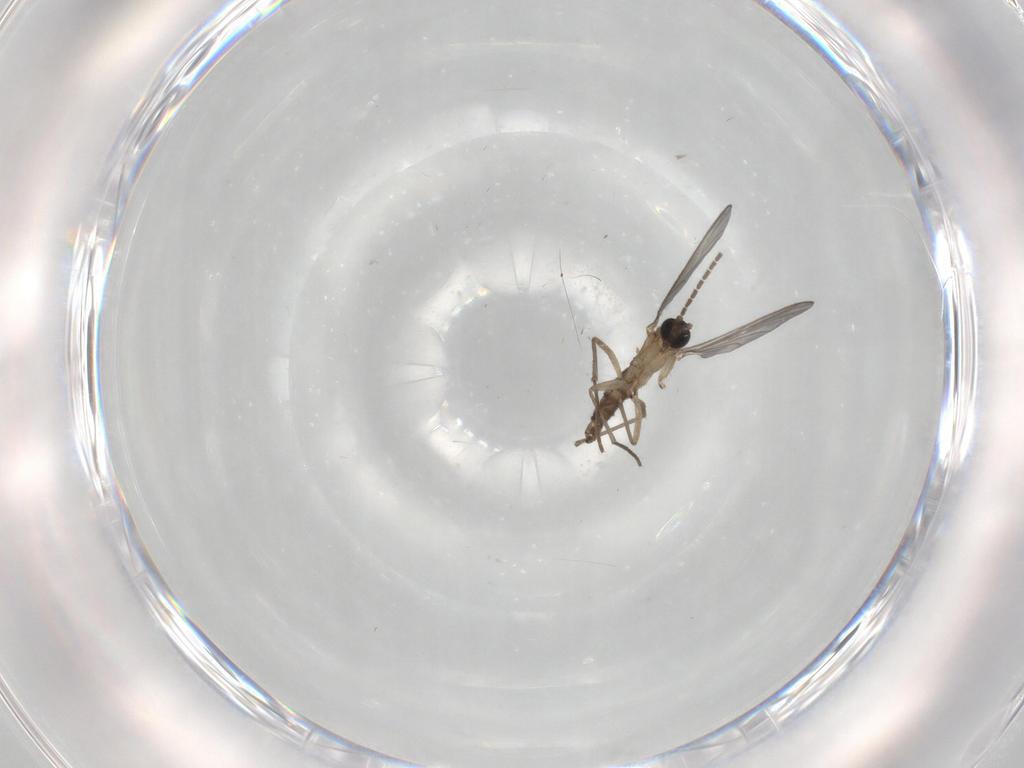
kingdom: Animalia
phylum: Arthropoda
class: Insecta
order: Diptera
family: Sciaridae
